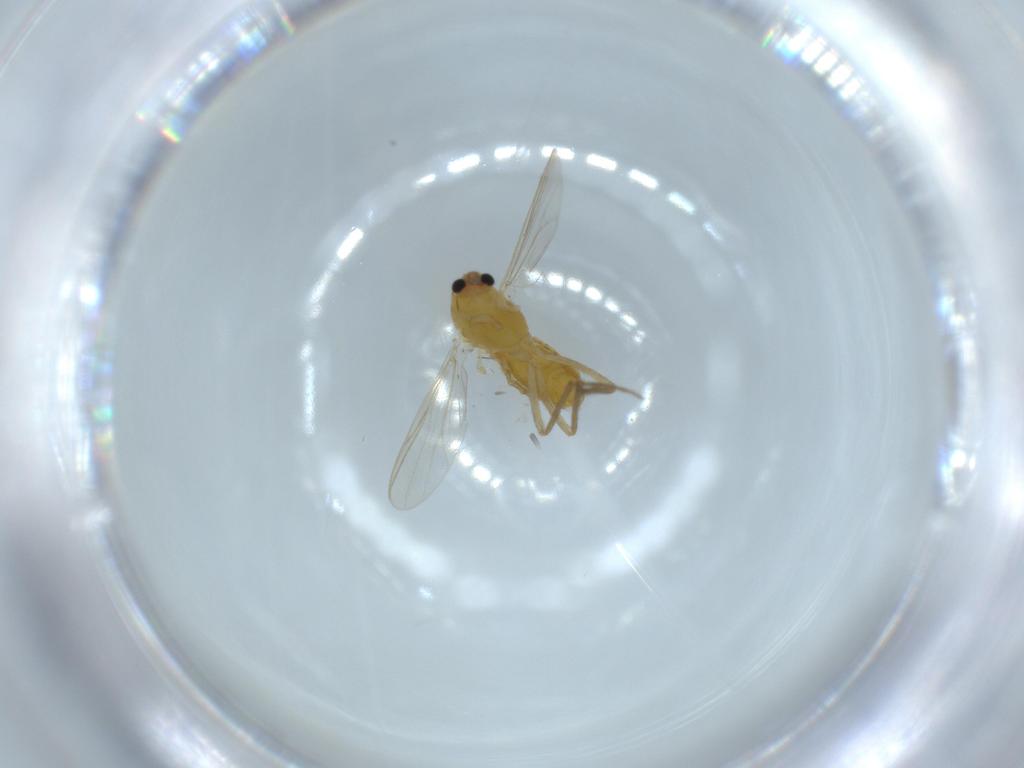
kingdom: Animalia
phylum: Arthropoda
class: Insecta
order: Diptera
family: Chironomidae
